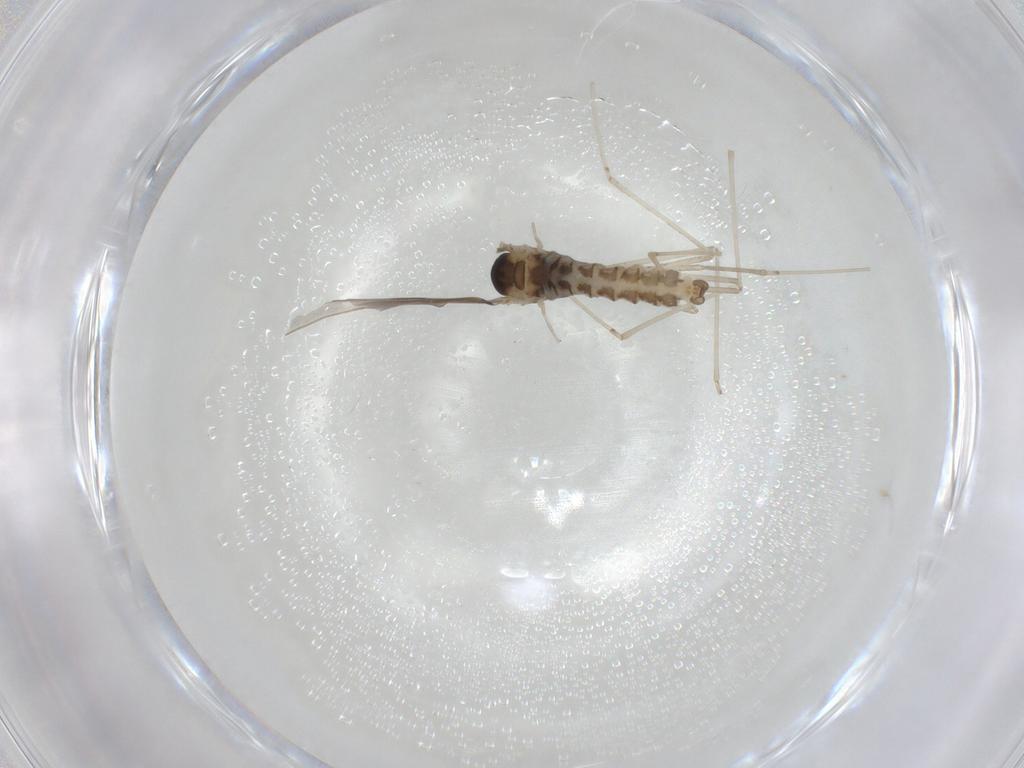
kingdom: Animalia
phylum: Arthropoda
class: Insecta
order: Diptera
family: Cecidomyiidae
